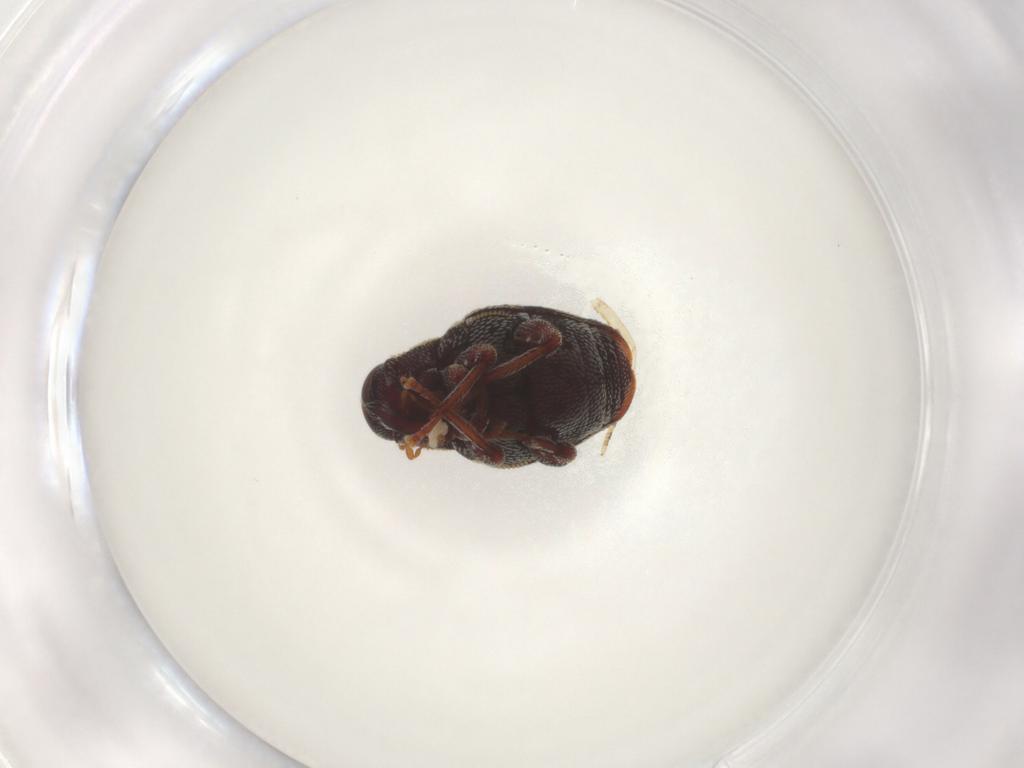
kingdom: Animalia
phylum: Arthropoda
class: Insecta
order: Coleoptera
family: Curculionidae
